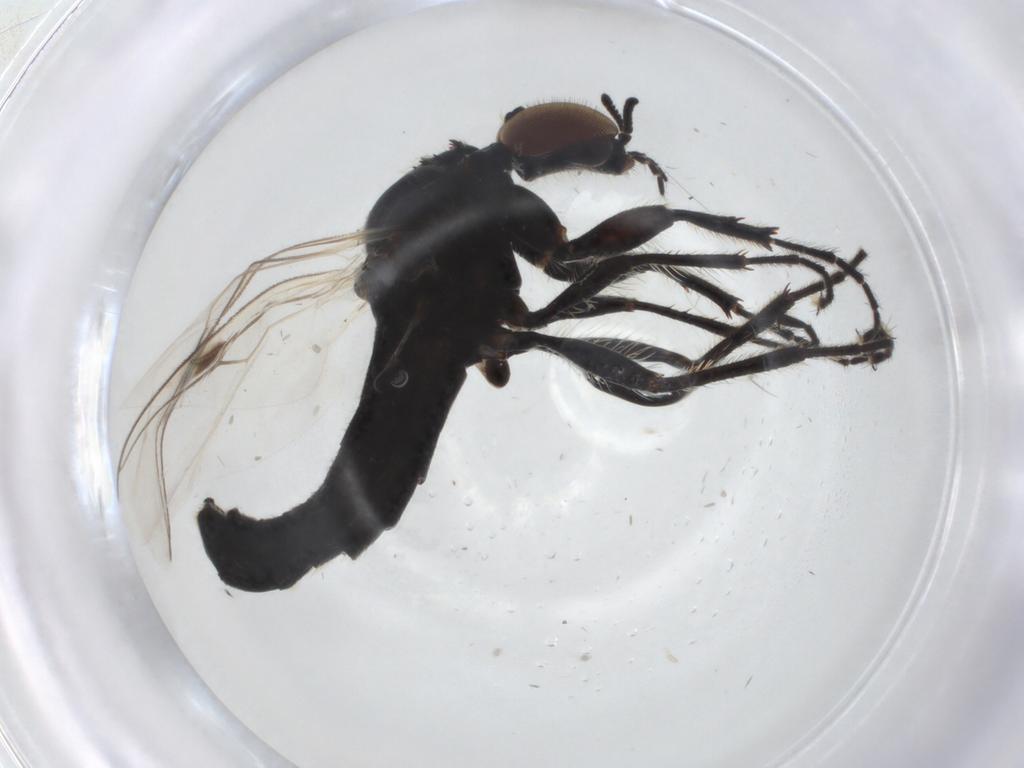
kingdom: Animalia
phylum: Arthropoda
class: Insecta
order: Diptera
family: Bibionidae
